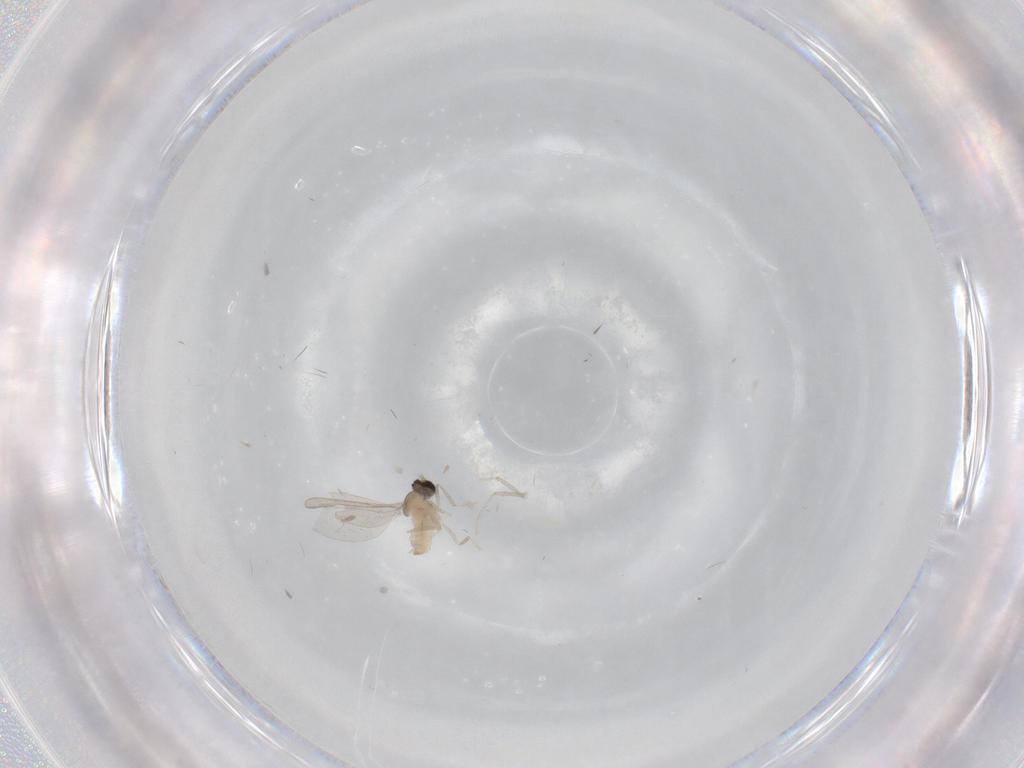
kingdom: Animalia
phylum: Arthropoda
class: Insecta
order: Diptera
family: Cecidomyiidae
